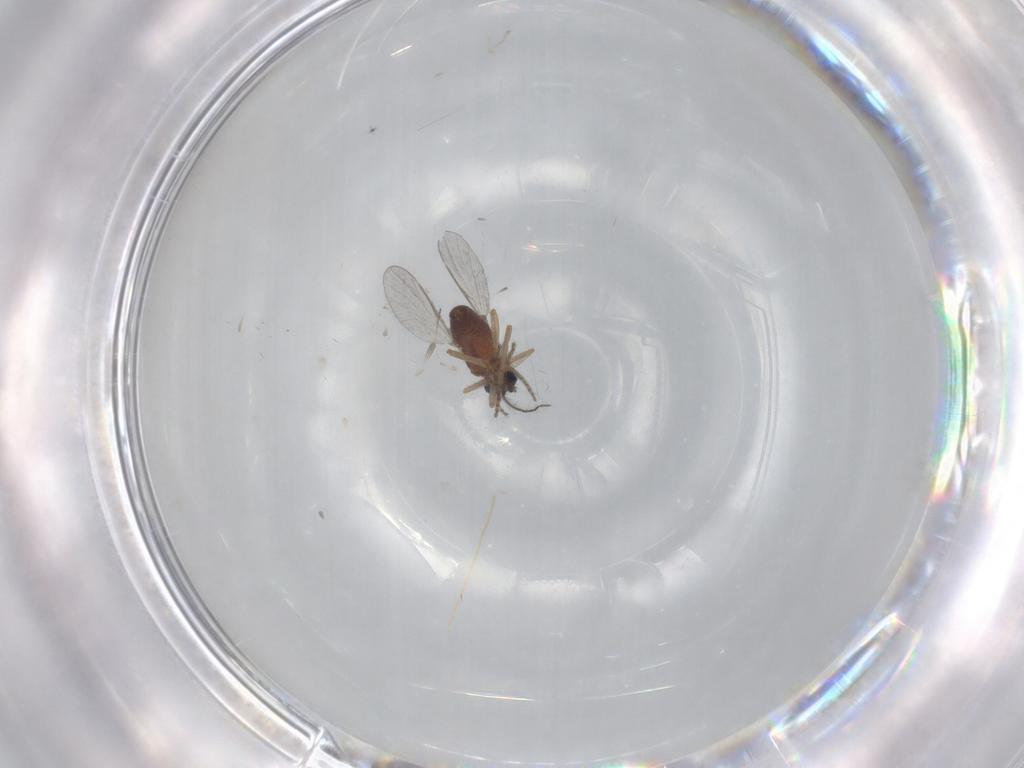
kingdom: Animalia
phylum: Arthropoda
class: Insecta
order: Diptera
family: Ceratopogonidae
